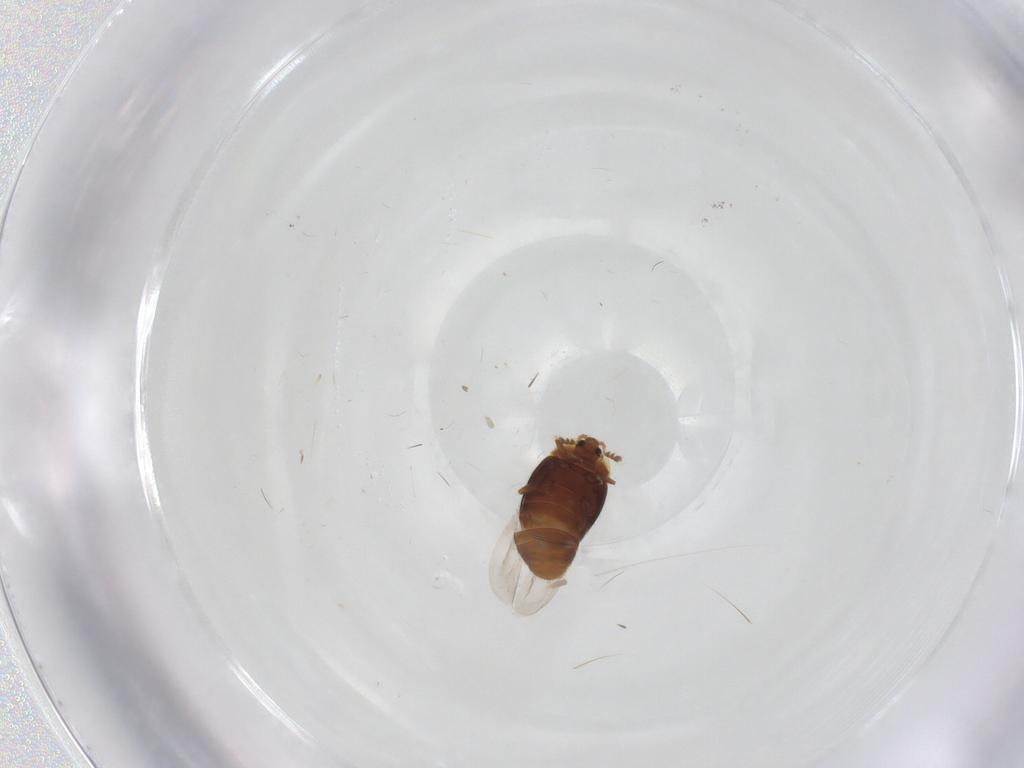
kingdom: Animalia
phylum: Arthropoda
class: Insecta
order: Coleoptera
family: Corylophidae
